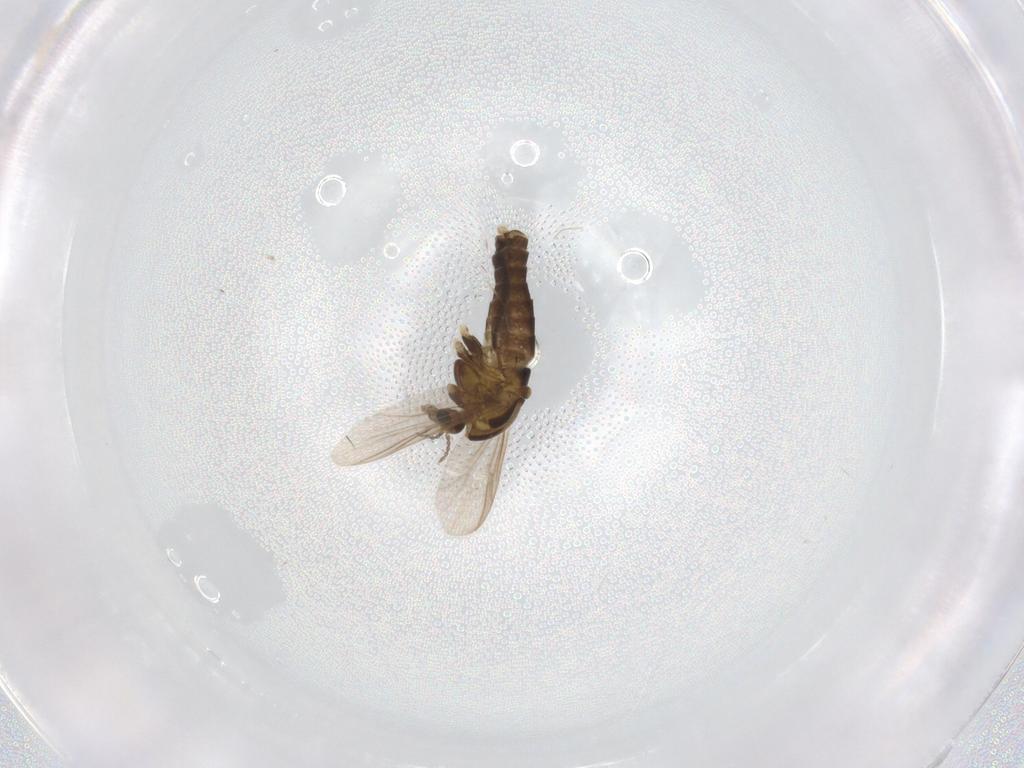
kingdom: Animalia
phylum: Arthropoda
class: Insecta
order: Diptera
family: Chironomidae
